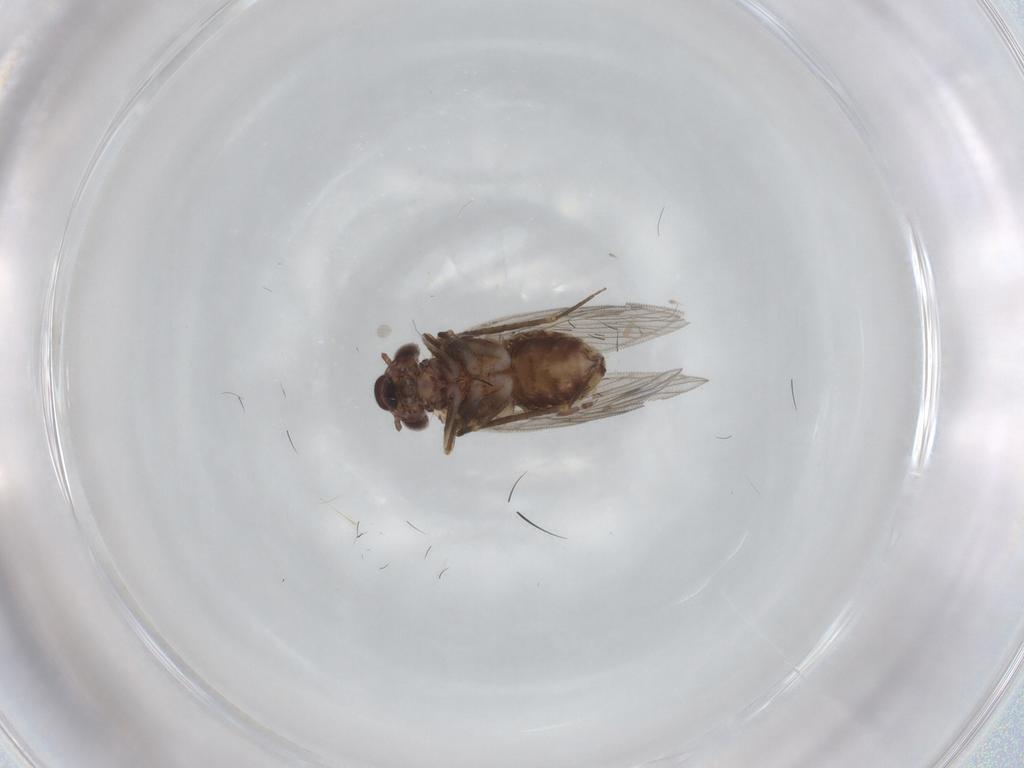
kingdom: Animalia
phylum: Arthropoda
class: Insecta
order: Psocodea
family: Lepidopsocidae
